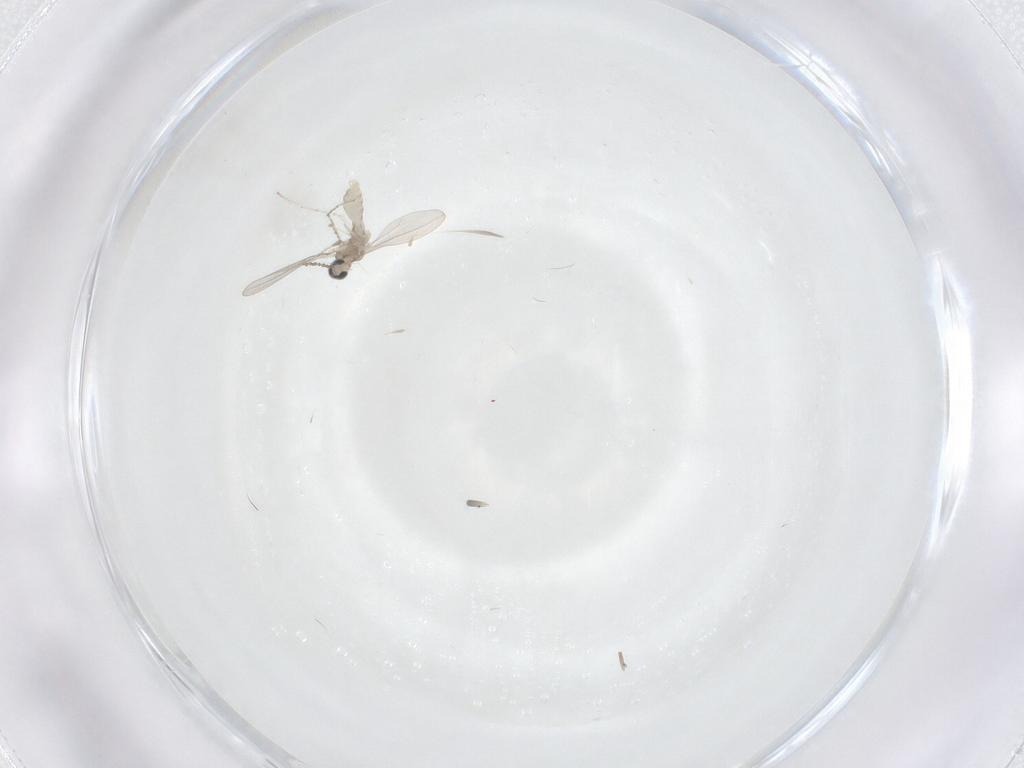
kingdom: Animalia
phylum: Arthropoda
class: Insecta
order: Diptera
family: Cecidomyiidae
